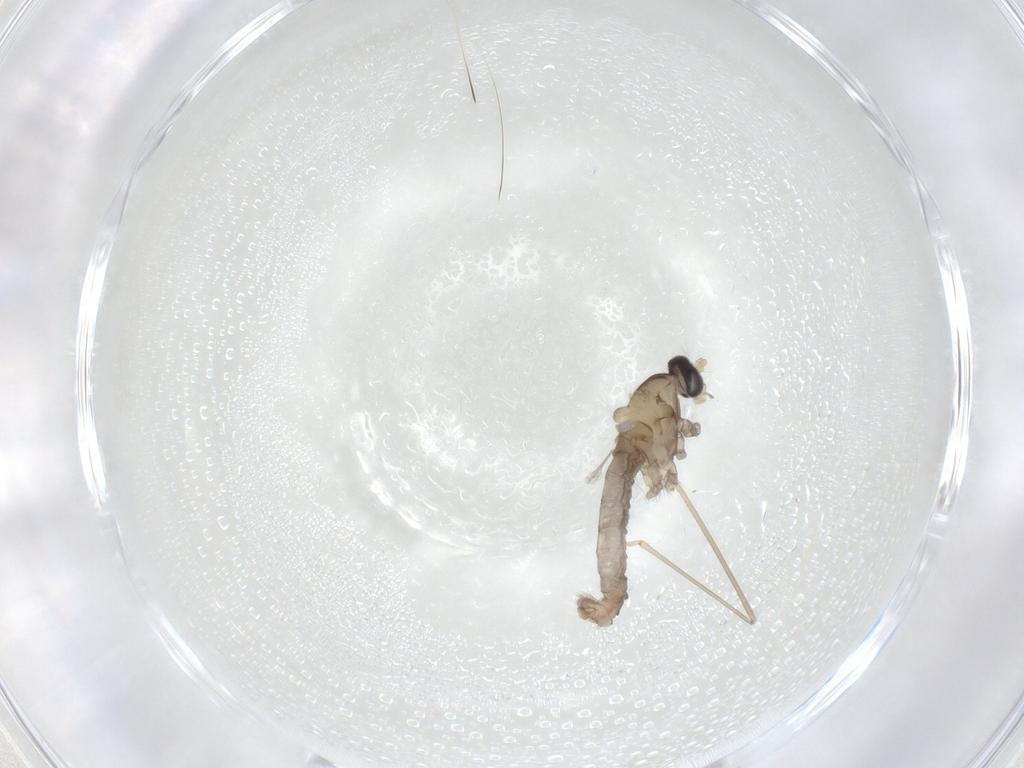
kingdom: Animalia
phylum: Arthropoda
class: Insecta
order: Diptera
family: Cecidomyiidae
